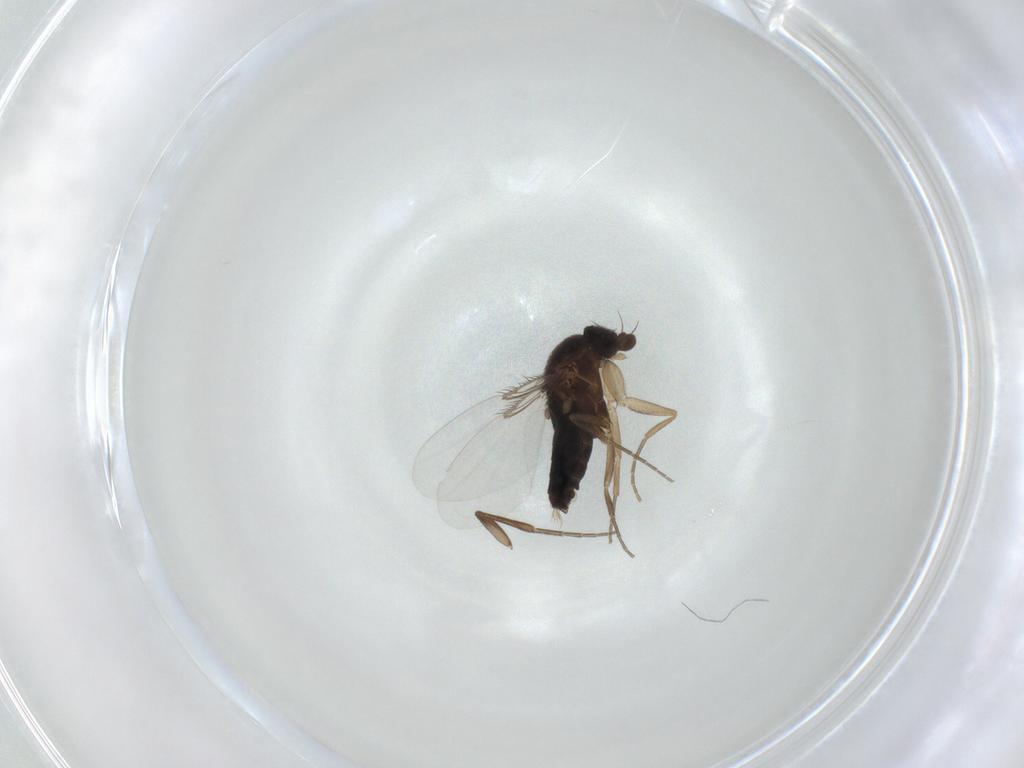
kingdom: Animalia
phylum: Arthropoda
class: Insecta
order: Diptera
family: Phoridae
